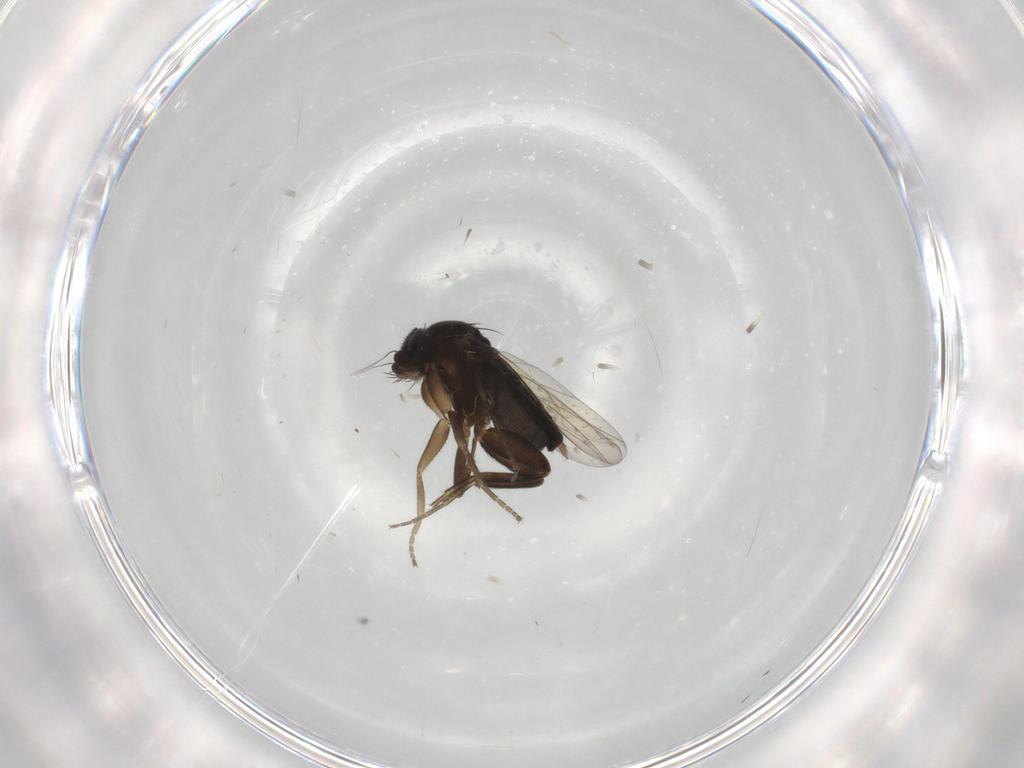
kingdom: Animalia
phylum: Arthropoda
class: Insecta
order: Diptera
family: Phoridae
